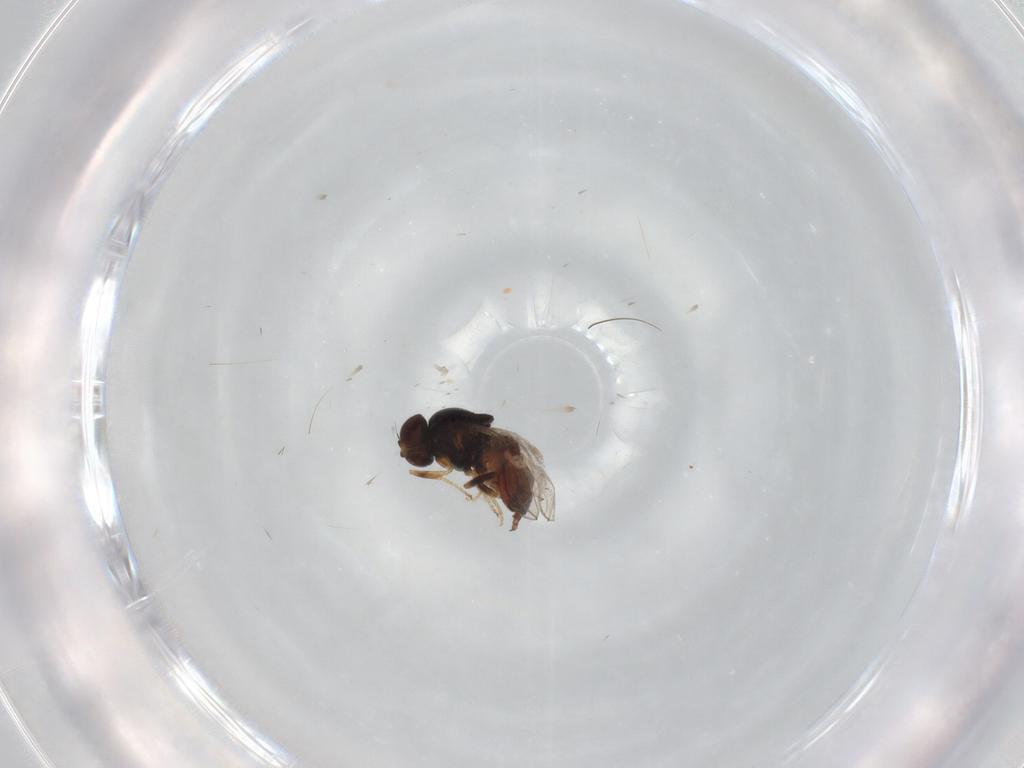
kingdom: Animalia
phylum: Arthropoda
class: Insecta
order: Diptera
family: Chloropidae
